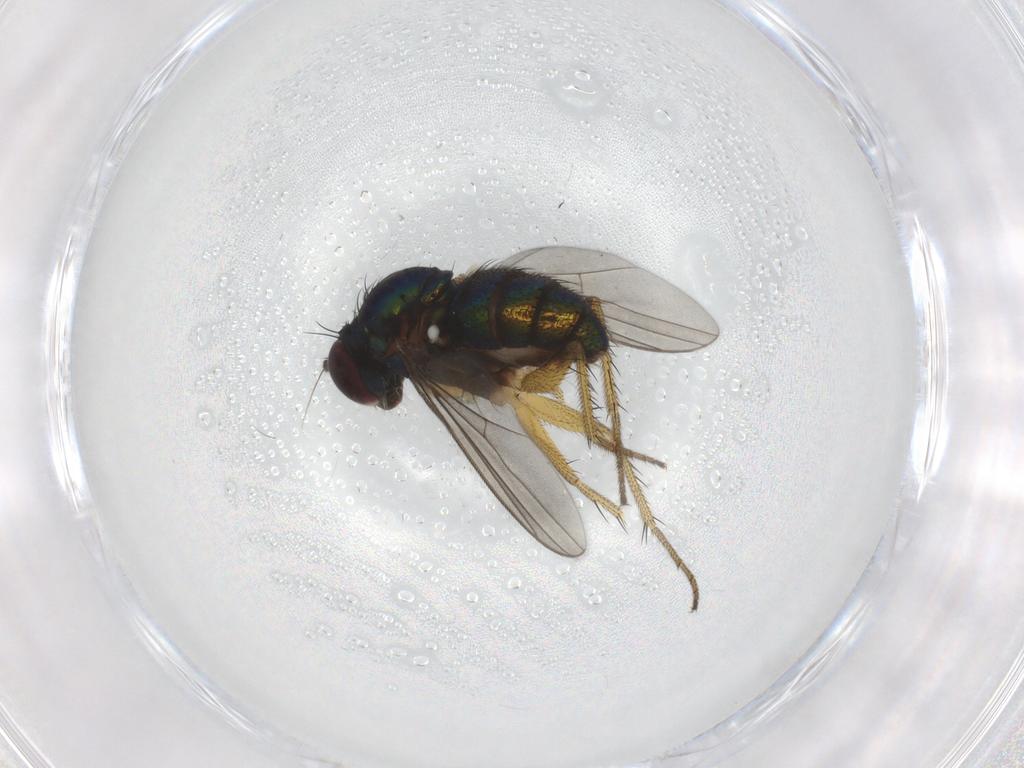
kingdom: Animalia
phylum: Arthropoda
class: Insecta
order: Diptera
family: Dolichopodidae
